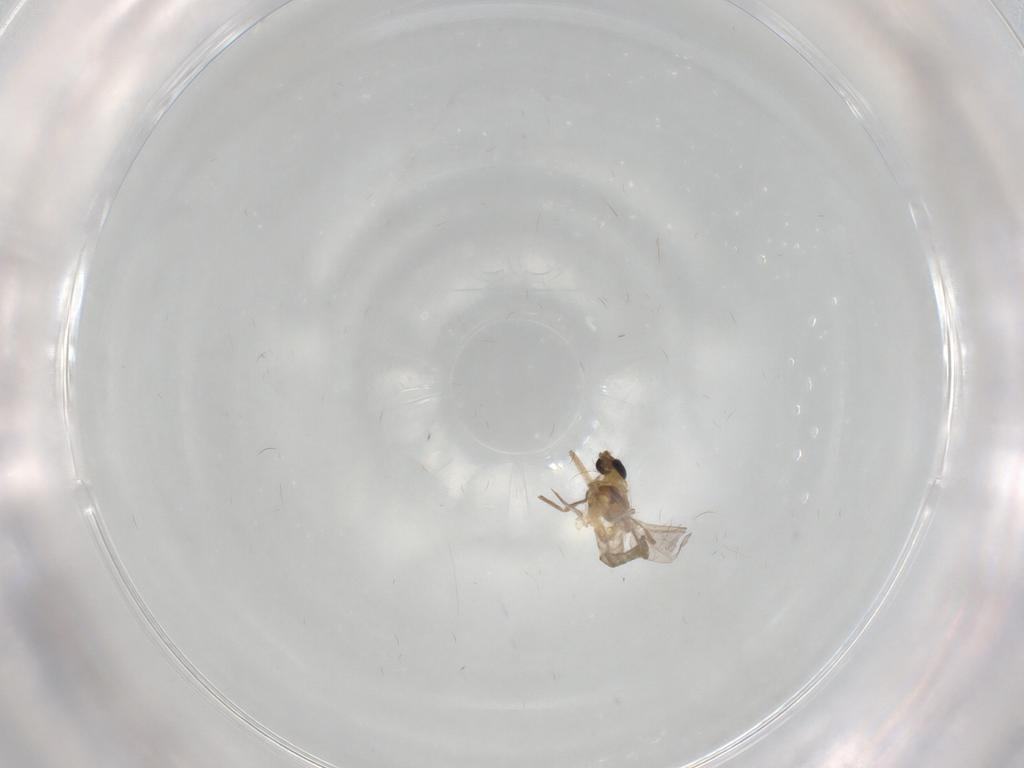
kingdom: Animalia
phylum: Arthropoda
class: Insecta
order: Diptera
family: Chironomidae
